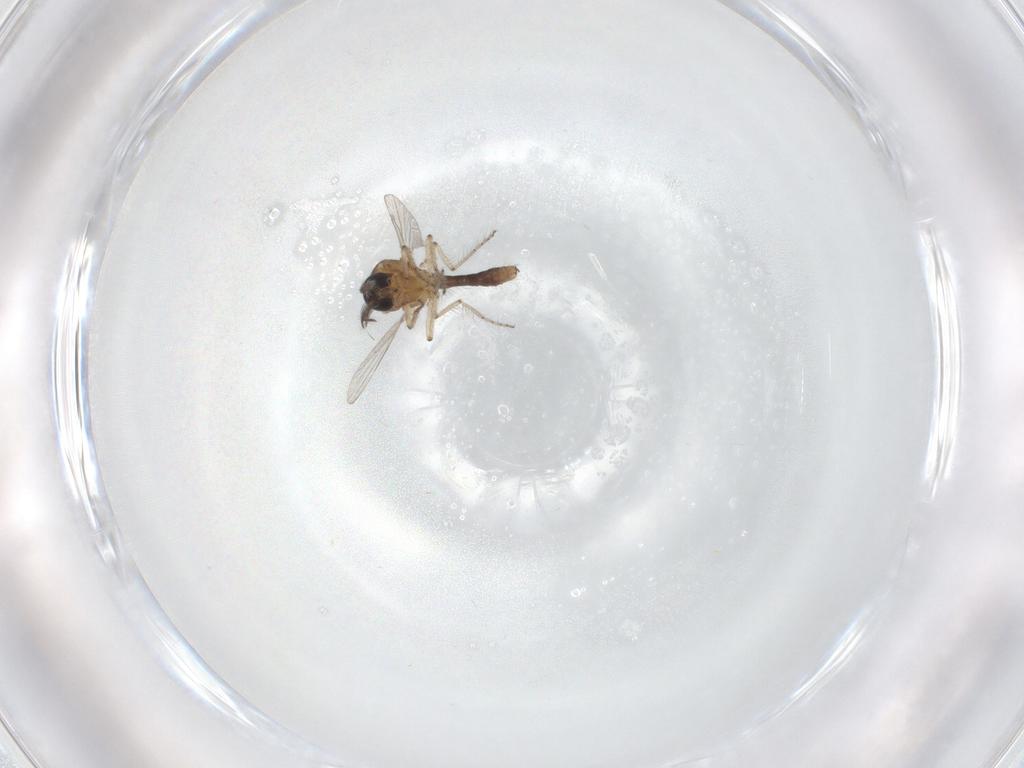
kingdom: Animalia
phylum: Arthropoda
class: Insecta
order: Diptera
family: Ceratopogonidae
